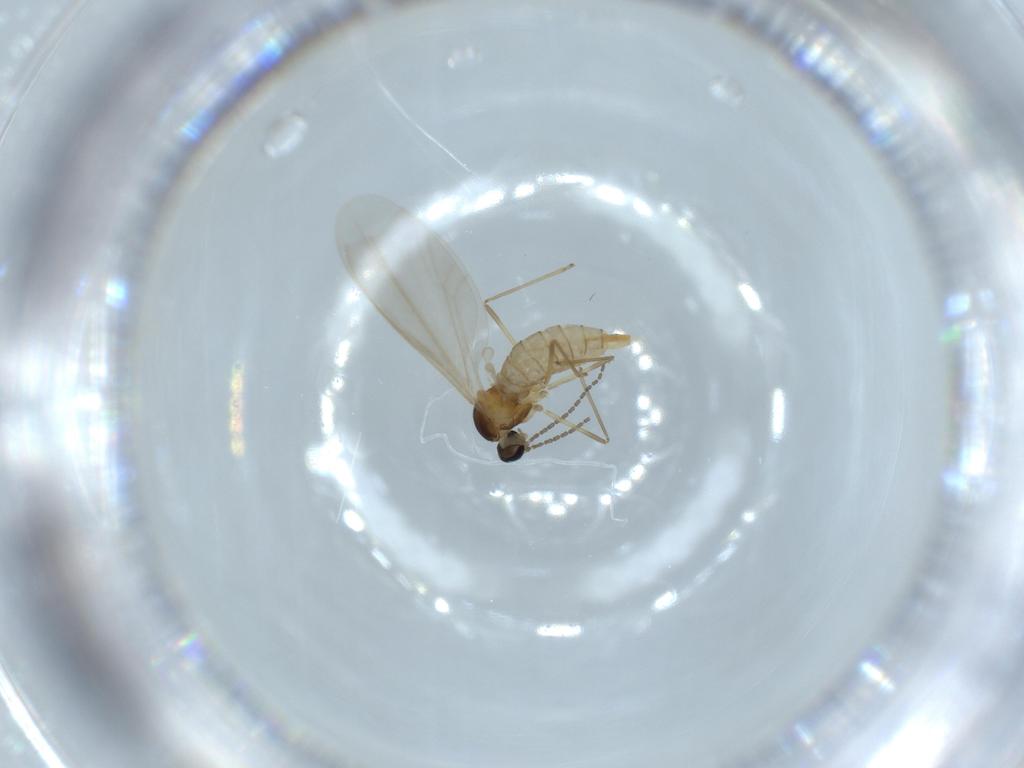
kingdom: Animalia
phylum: Arthropoda
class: Insecta
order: Diptera
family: Cecidomyiidae
